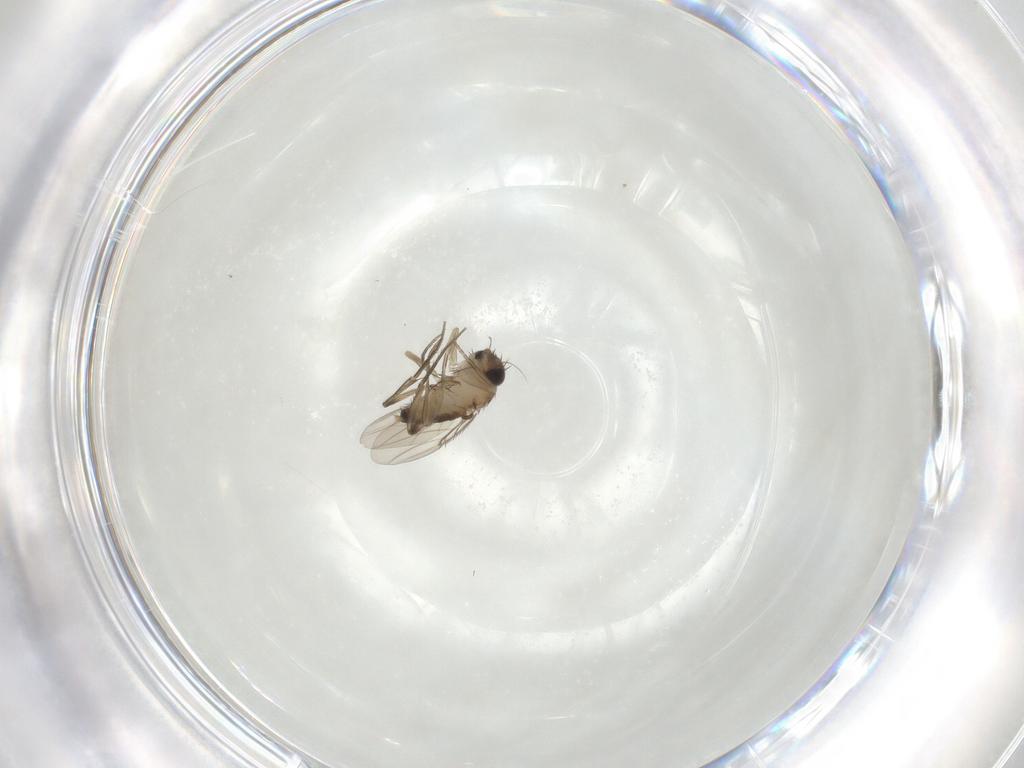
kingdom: Animalia
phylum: Arthropoda
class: Insecta
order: Diptera
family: Phoridae
